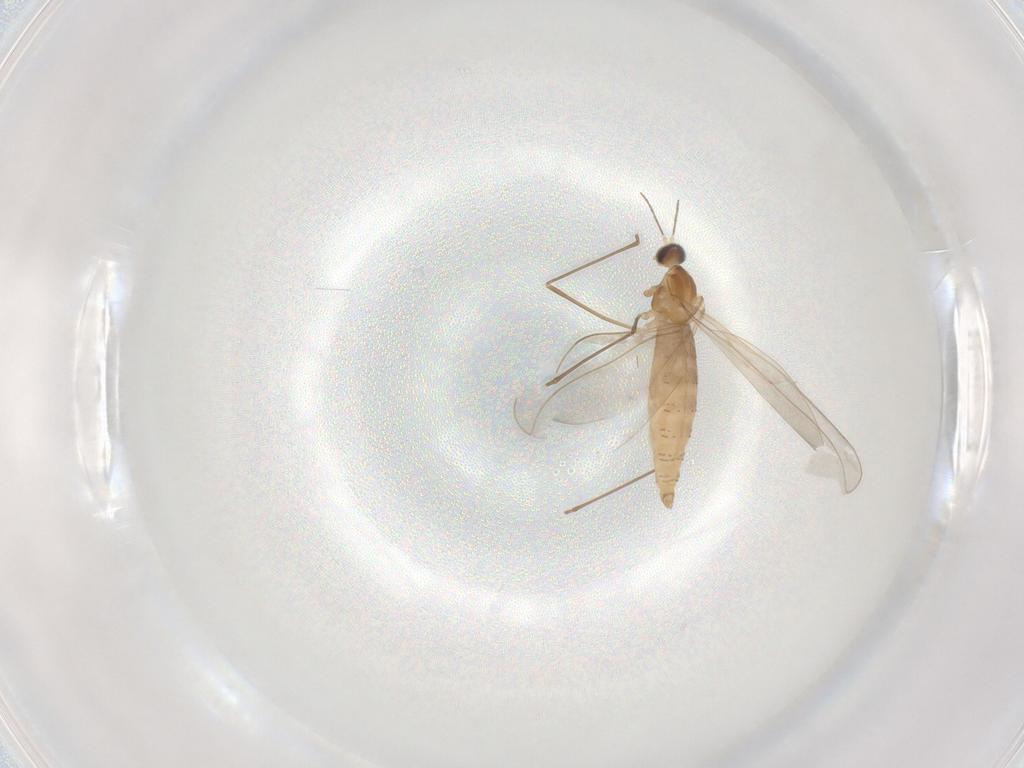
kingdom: Animalia
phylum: Arthropoda
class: Insecta
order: Diptera
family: Cecidomyiidae
